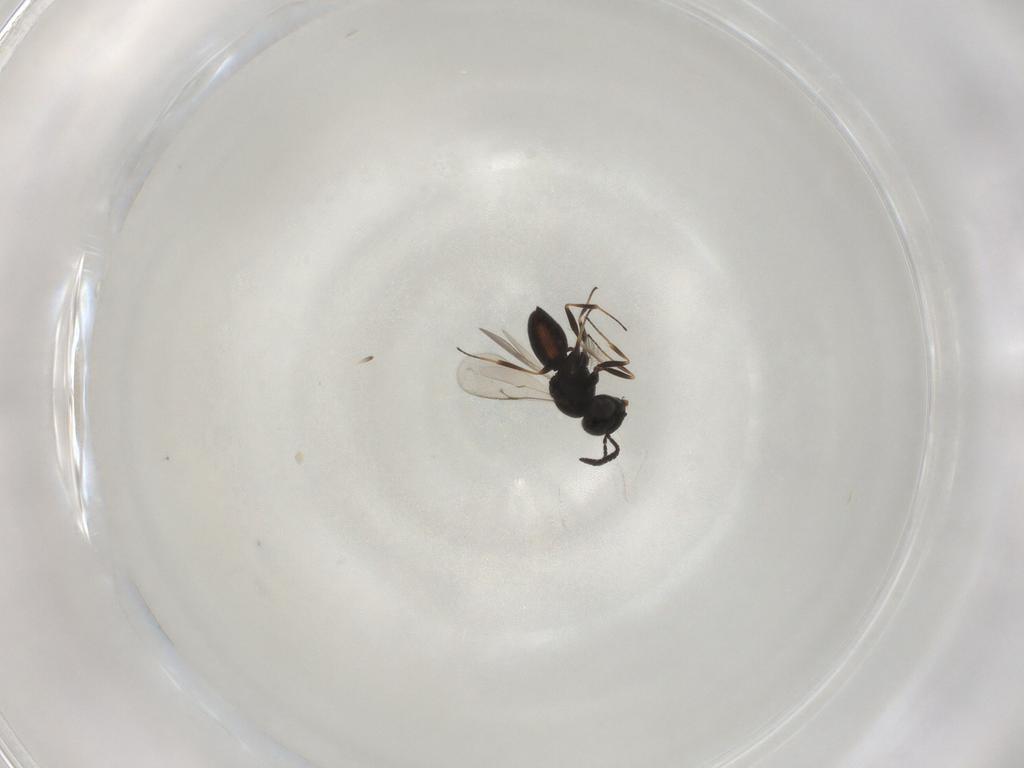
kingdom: Animalia
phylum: Arthropoda
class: Insecta
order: Hymenoptera
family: Scelionidae
